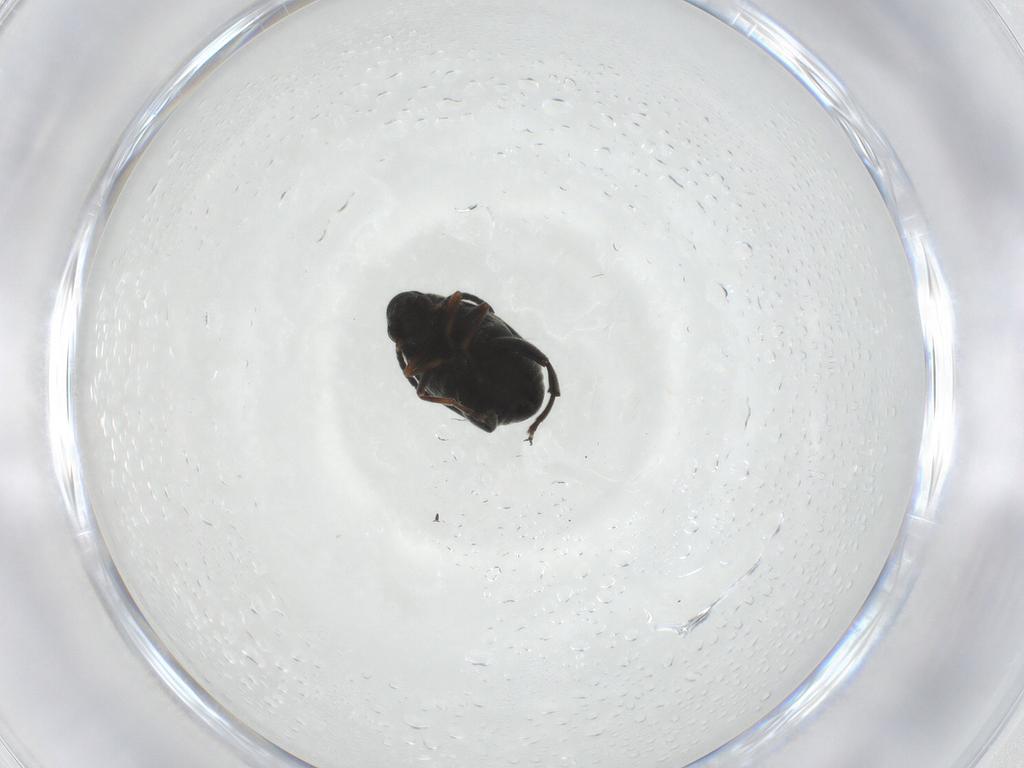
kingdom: Animalia
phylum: Arthropoda
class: Insecta
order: Coleoptera
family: Chrysomelidae
